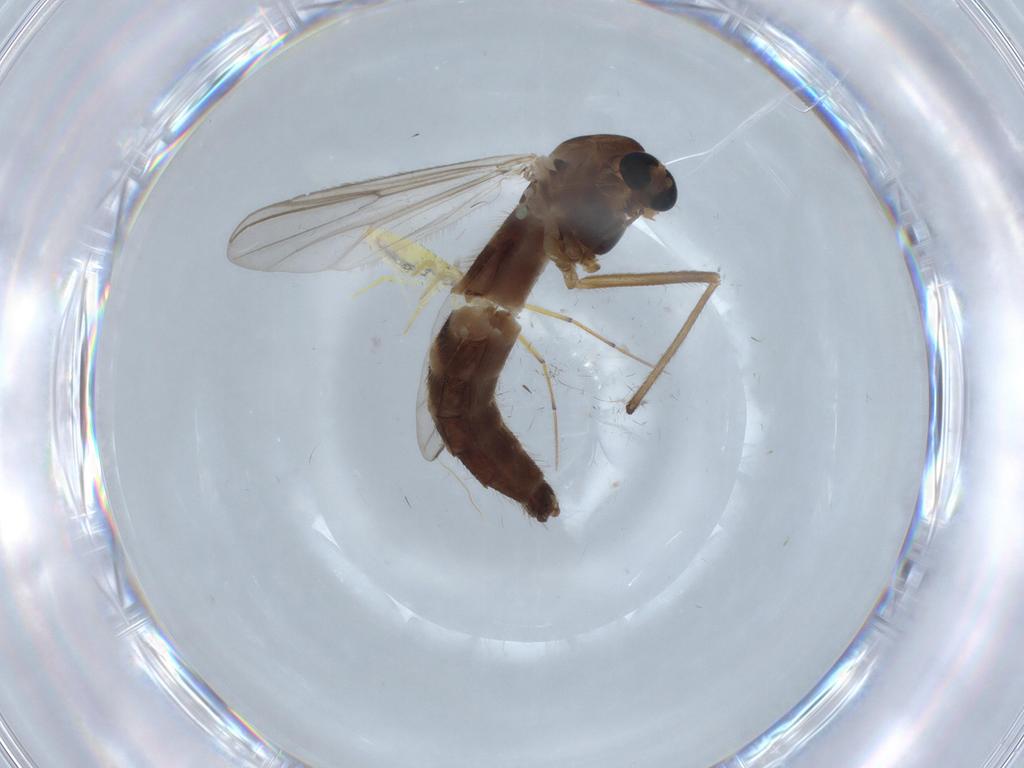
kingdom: Animalia
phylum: Arthropoda
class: Insecta
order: Diptera
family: Chironomidae
